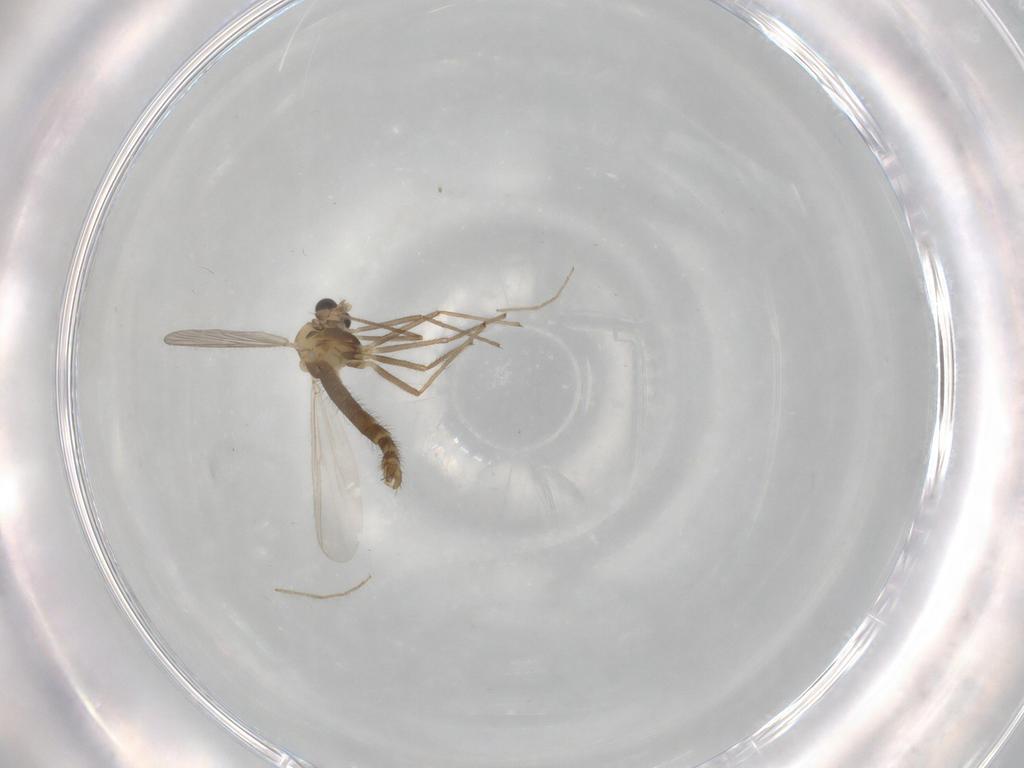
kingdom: Animalia
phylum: Arthropoda
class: Insecta
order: Diptera
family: Chironomidae
